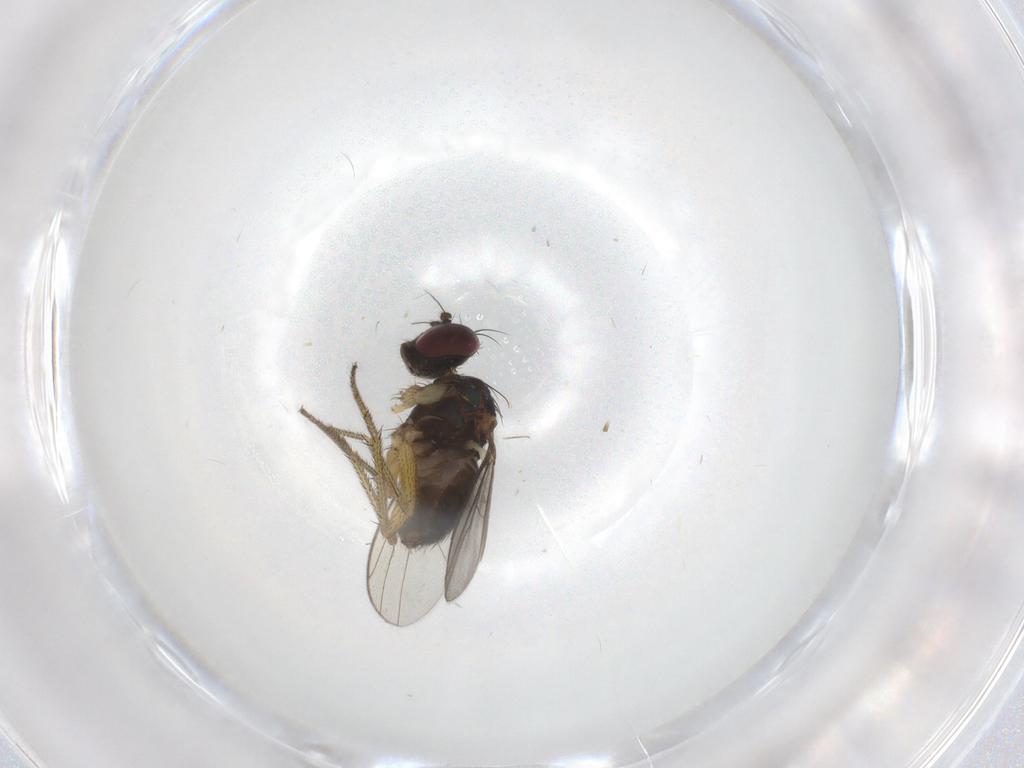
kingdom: Animalia
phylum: Arthropoda
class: Insecta
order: Diptera
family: Dolichopodidae
